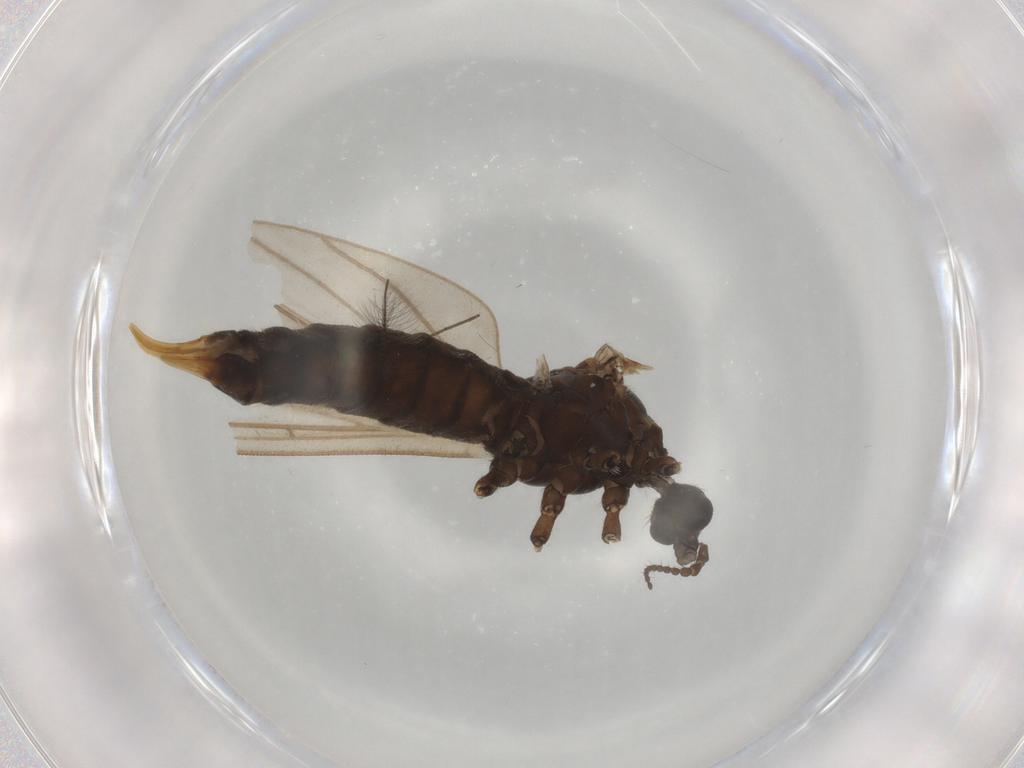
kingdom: Animalia
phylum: Arthropoda
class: Insecta
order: Diptera
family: Limoniidae
